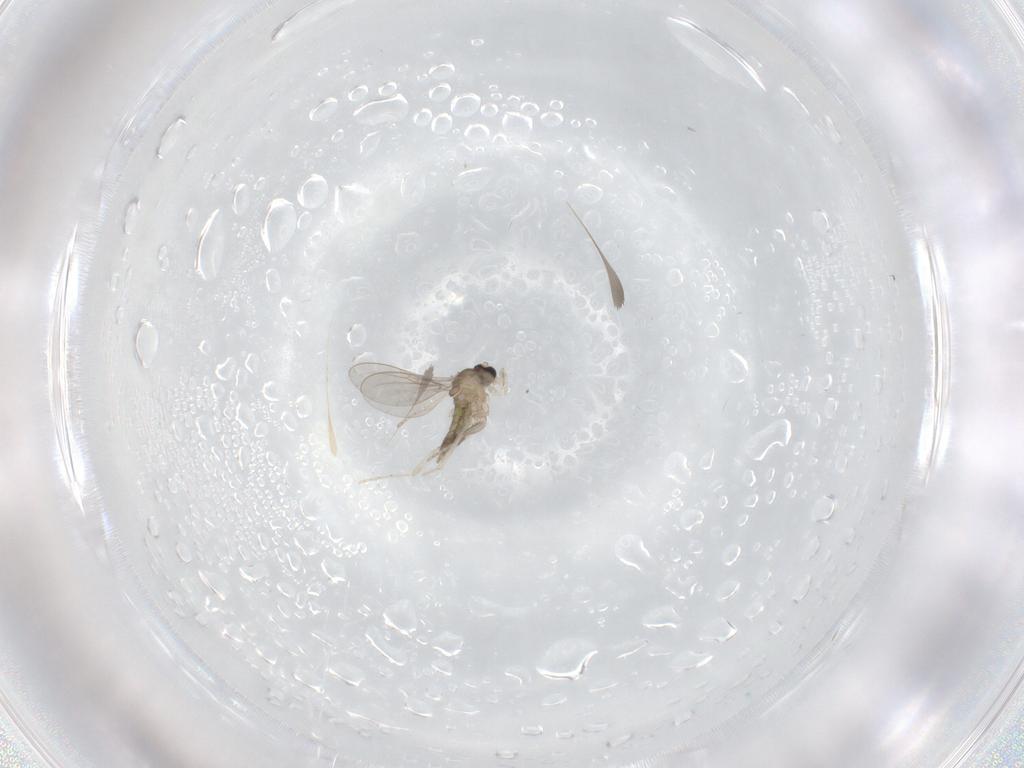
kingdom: Animalia
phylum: Arthropoda
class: Insecta
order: Diptera
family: Cecidomyiidae
